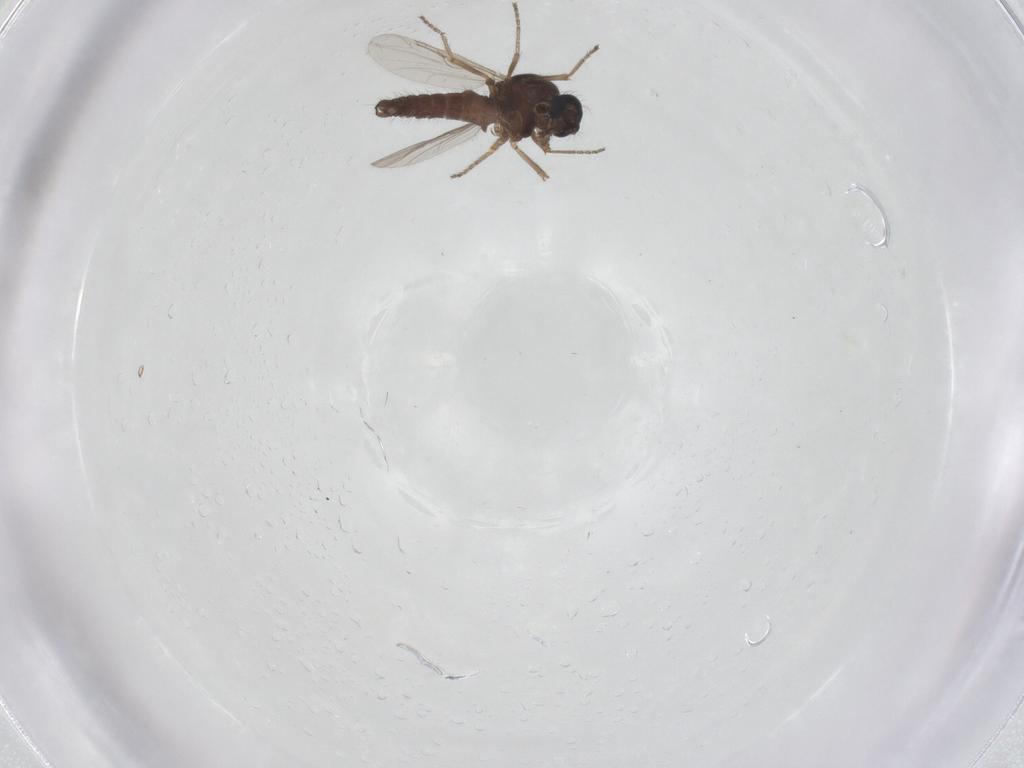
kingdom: Animalia
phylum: Arthropoda
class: Insecta
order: Diptera
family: Ceratopogonidae
